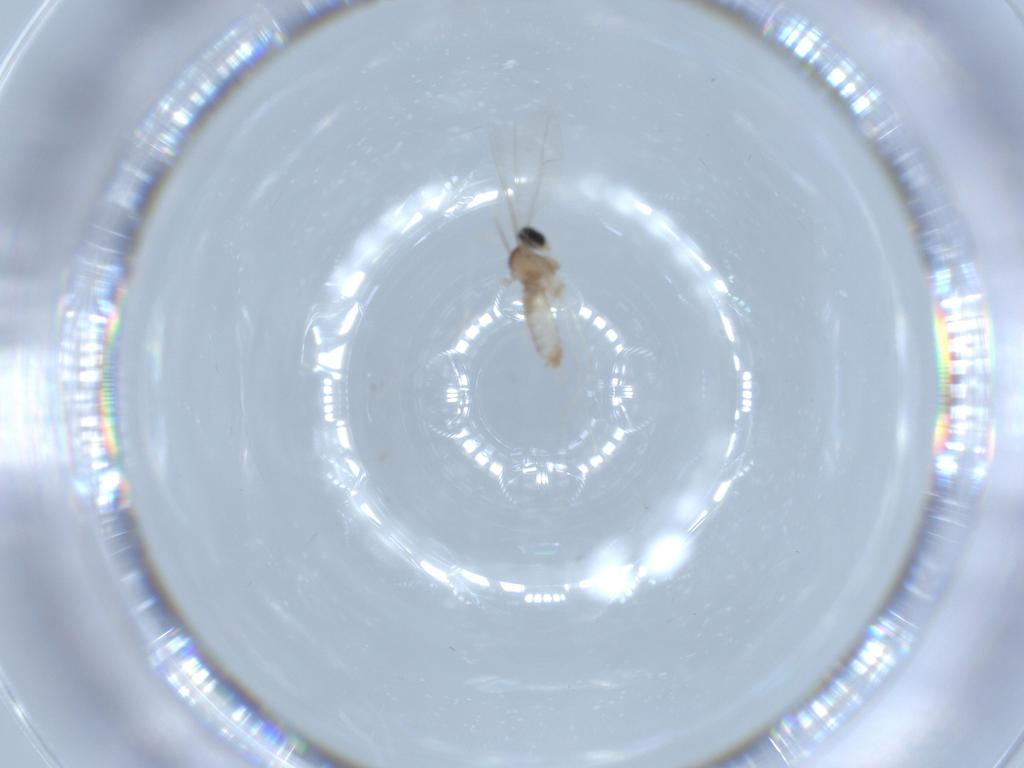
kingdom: Animalia
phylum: Arthropoda
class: Insecta
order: Diptera
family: Cecidomyiidae
